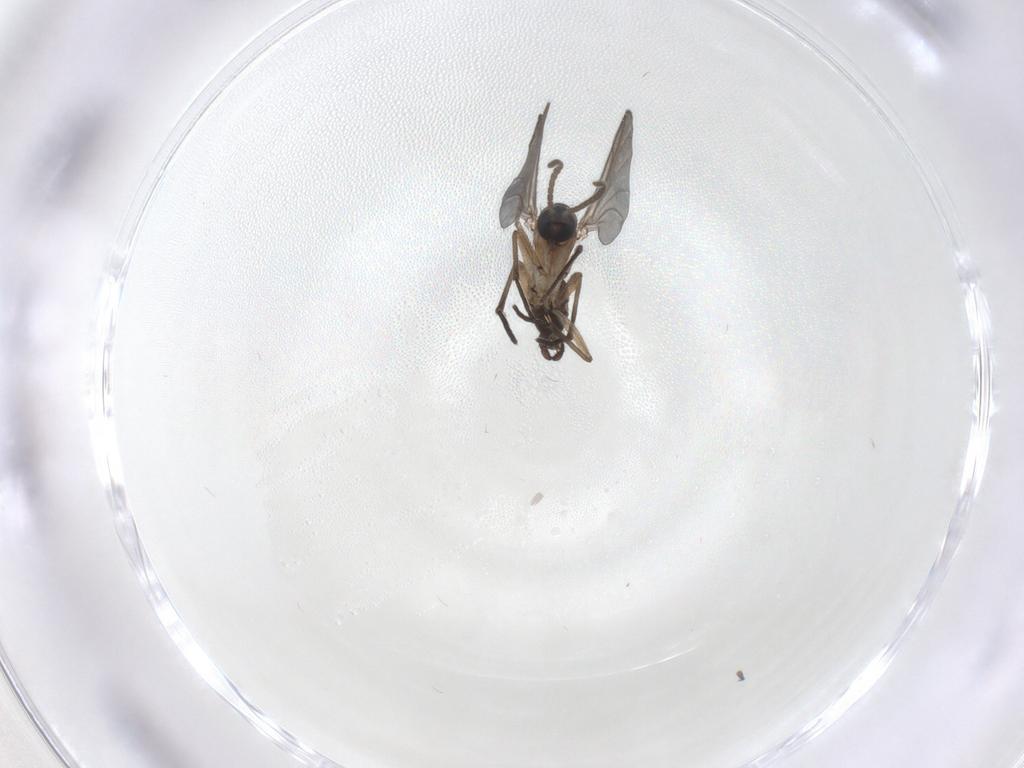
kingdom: Animalia
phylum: Arthropoda
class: Insecta
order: Diptera
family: Sciaridae
